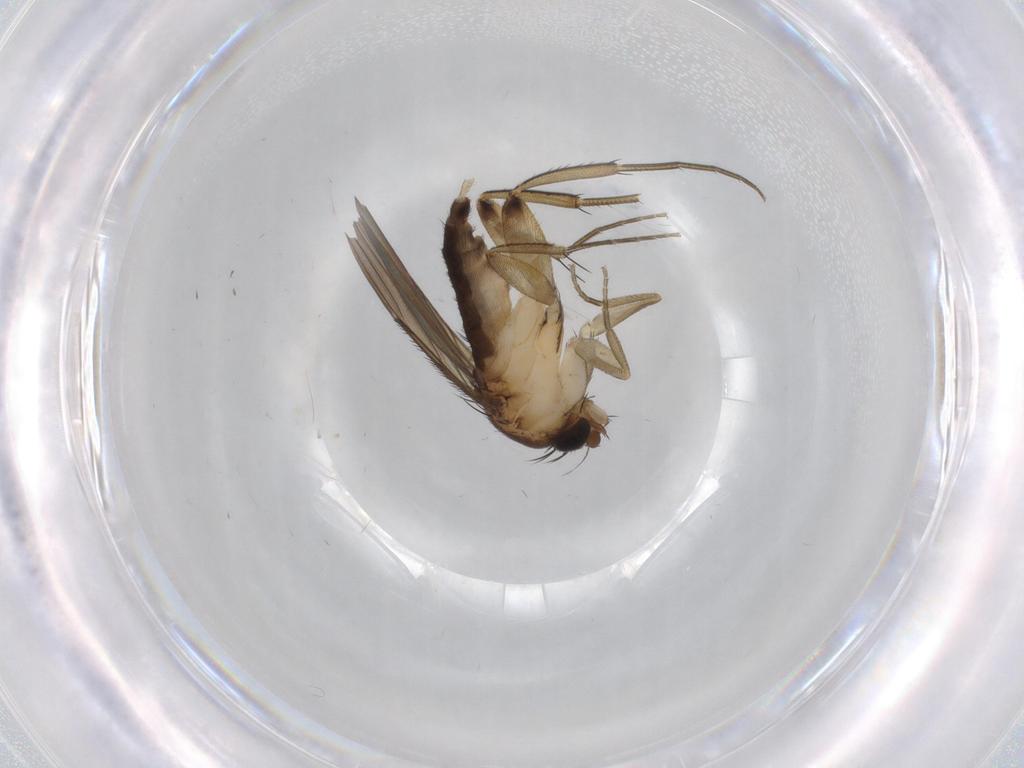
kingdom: Animalia
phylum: Arthropoda
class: Insecta
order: Diptera
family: Phoridae
